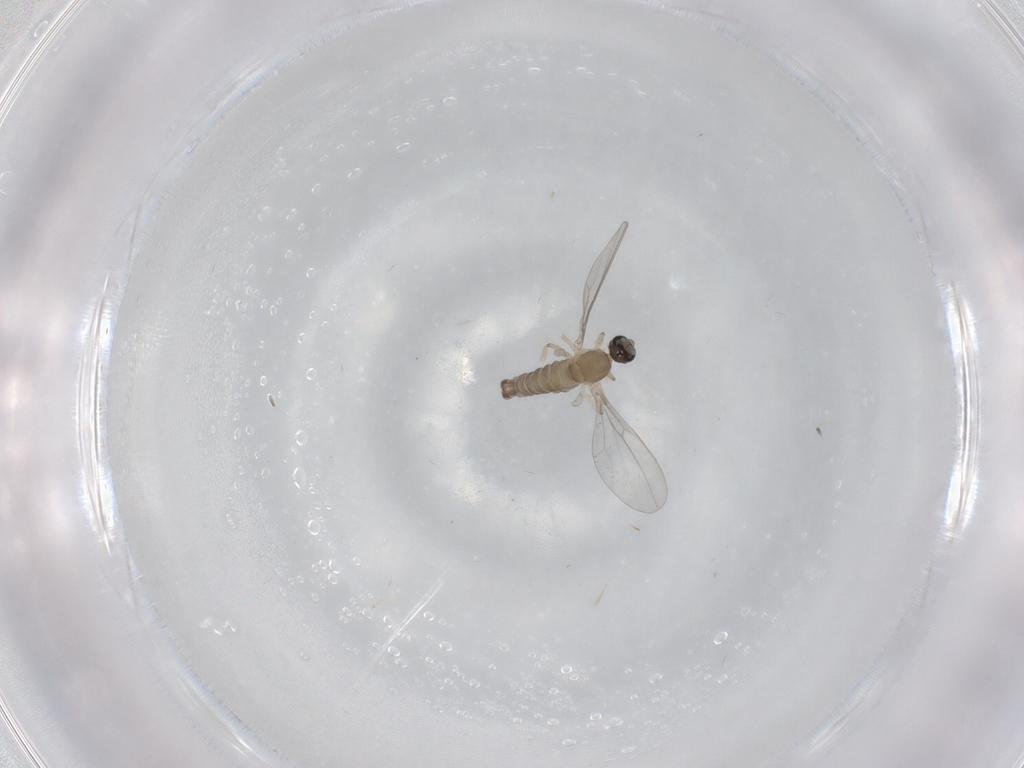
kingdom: Animalia
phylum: Arthropoda
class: Insecta
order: Diptera
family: Cecidomyiidae
